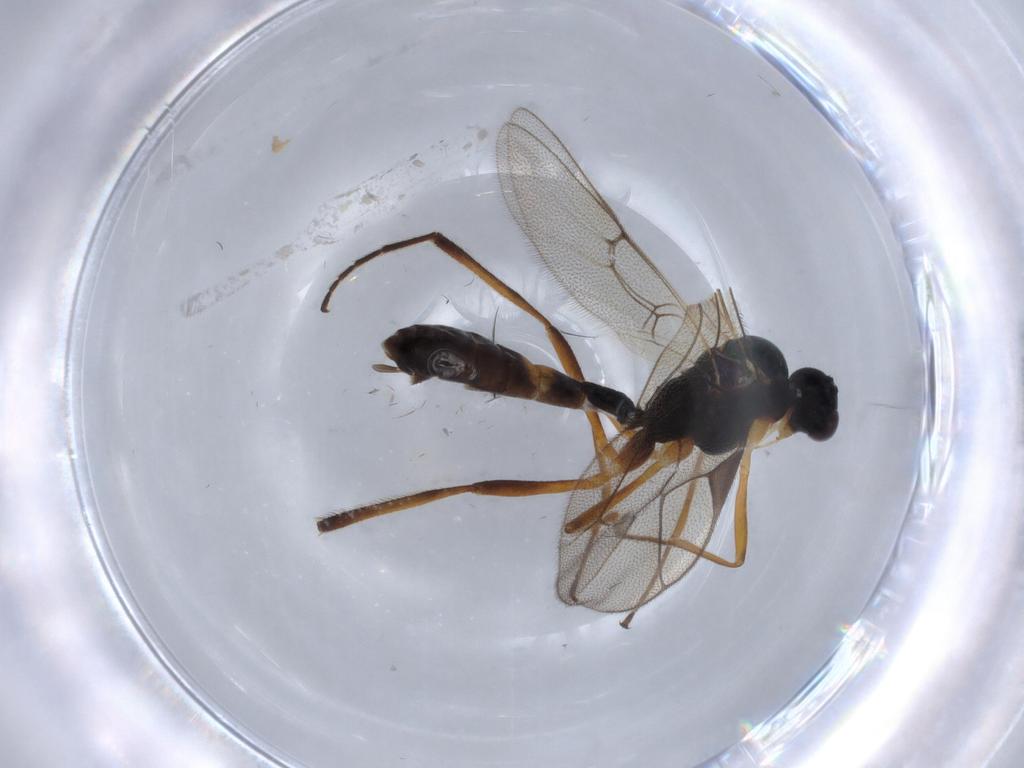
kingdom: Animalia
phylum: Arthropoda
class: Insecta
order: Hymenoptera
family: Ichneumonidae
